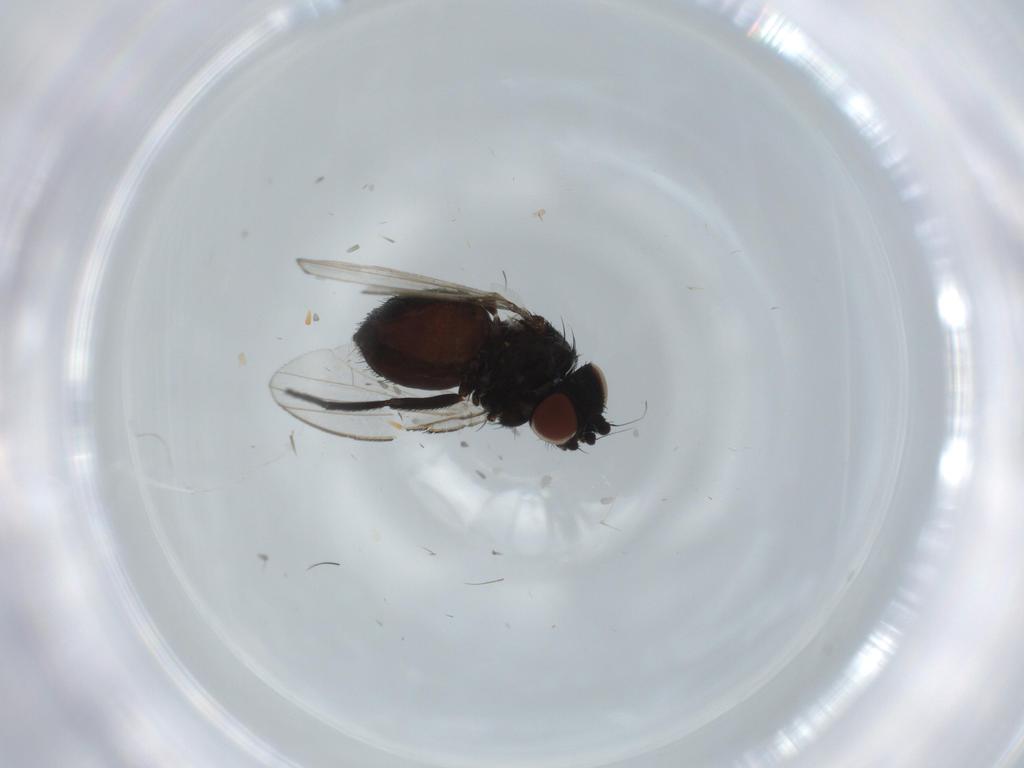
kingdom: Animalia
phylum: Arthropoda
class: Insecta
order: Diptera
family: Milichiidae
